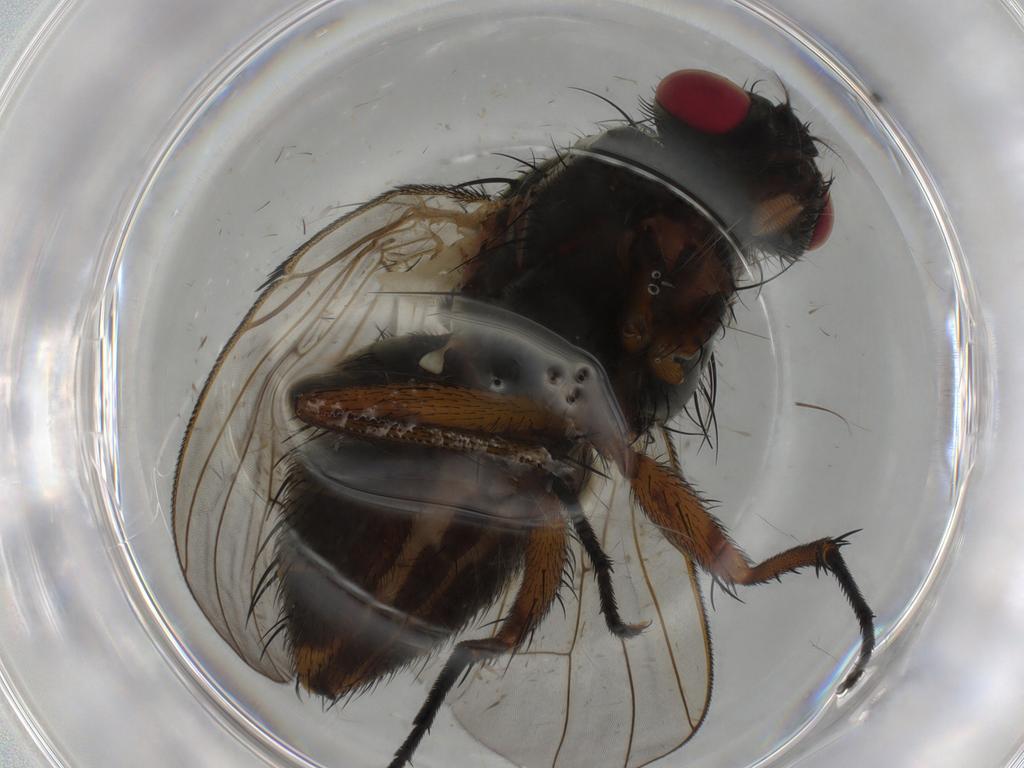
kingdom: Animalia
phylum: Arthropoda
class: Insecta
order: Diptera
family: Muscidae
